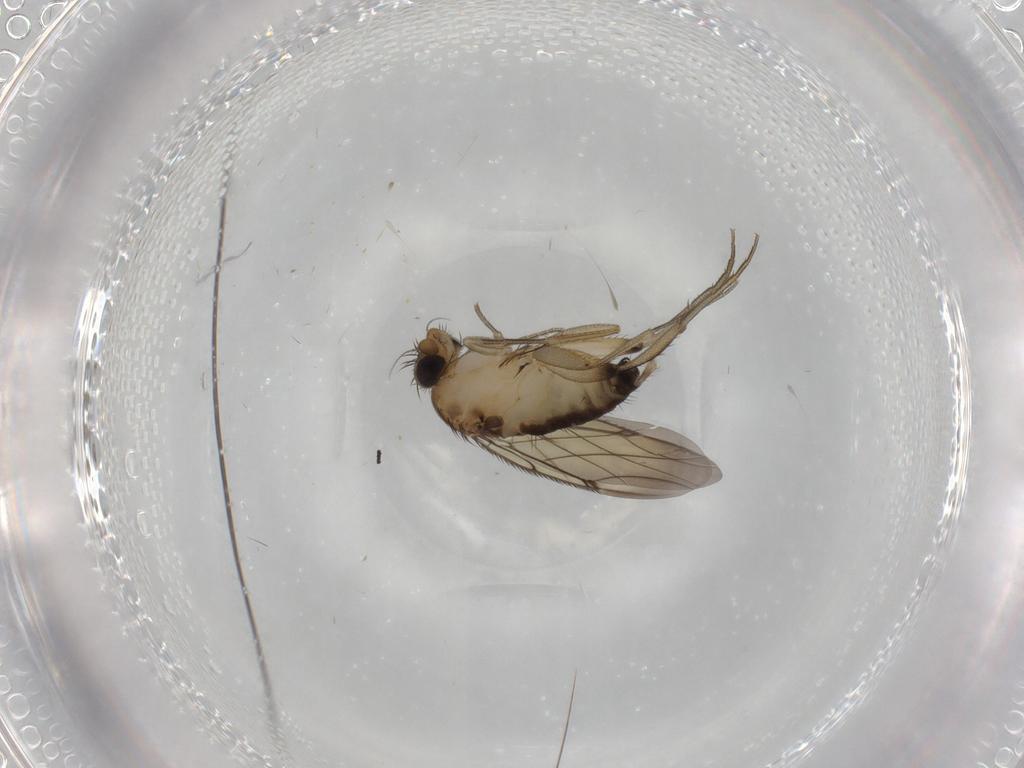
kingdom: Animalia
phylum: Arthropoda
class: Insecta
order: Diptera
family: Phoridae
